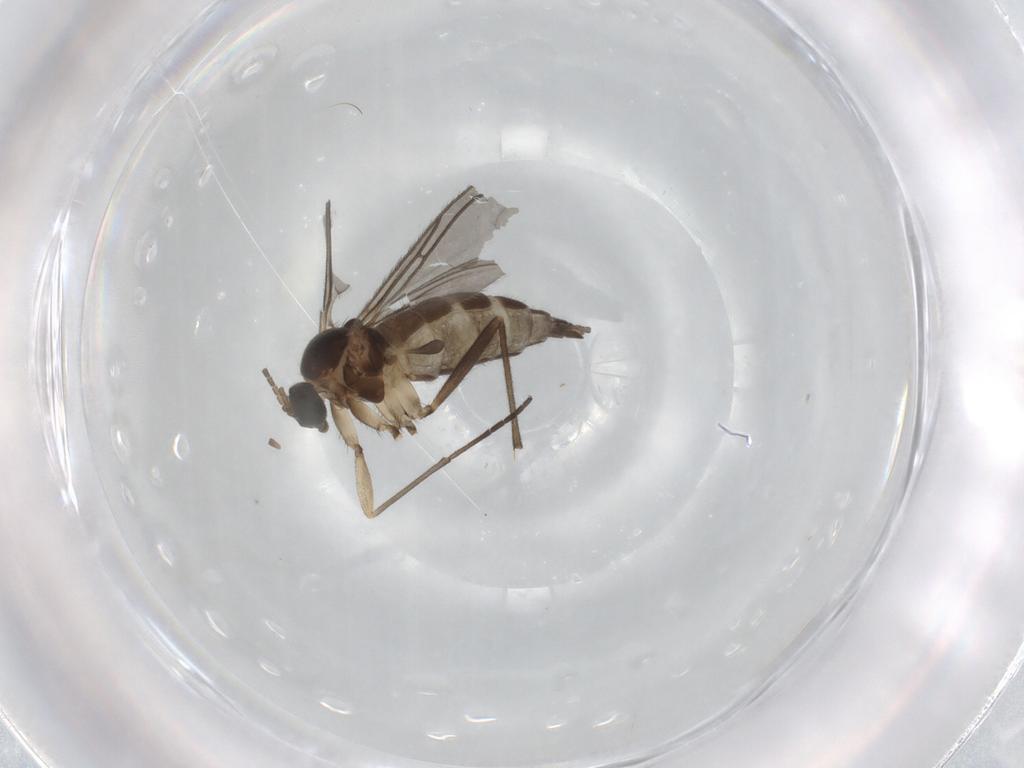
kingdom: Animalia
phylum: Arthropoda
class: Insecta
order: Diptera
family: Sciaridae
